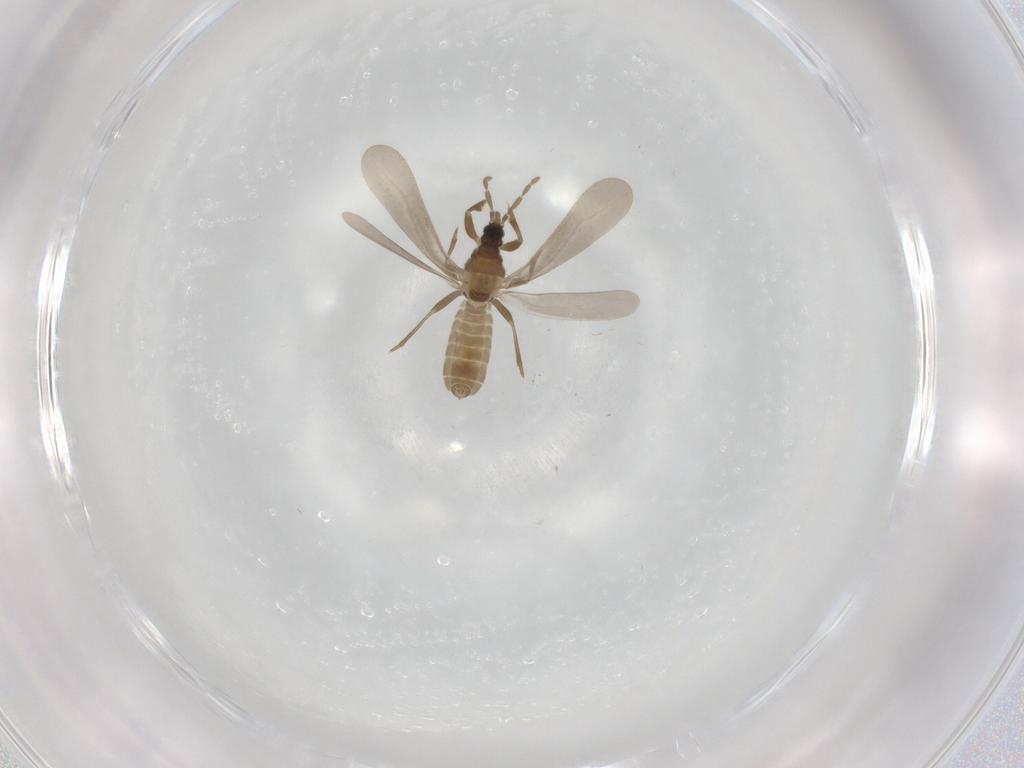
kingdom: Animalia
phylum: Arthropoda
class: Insecta
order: Hemiptera
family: Enicocephalidae
